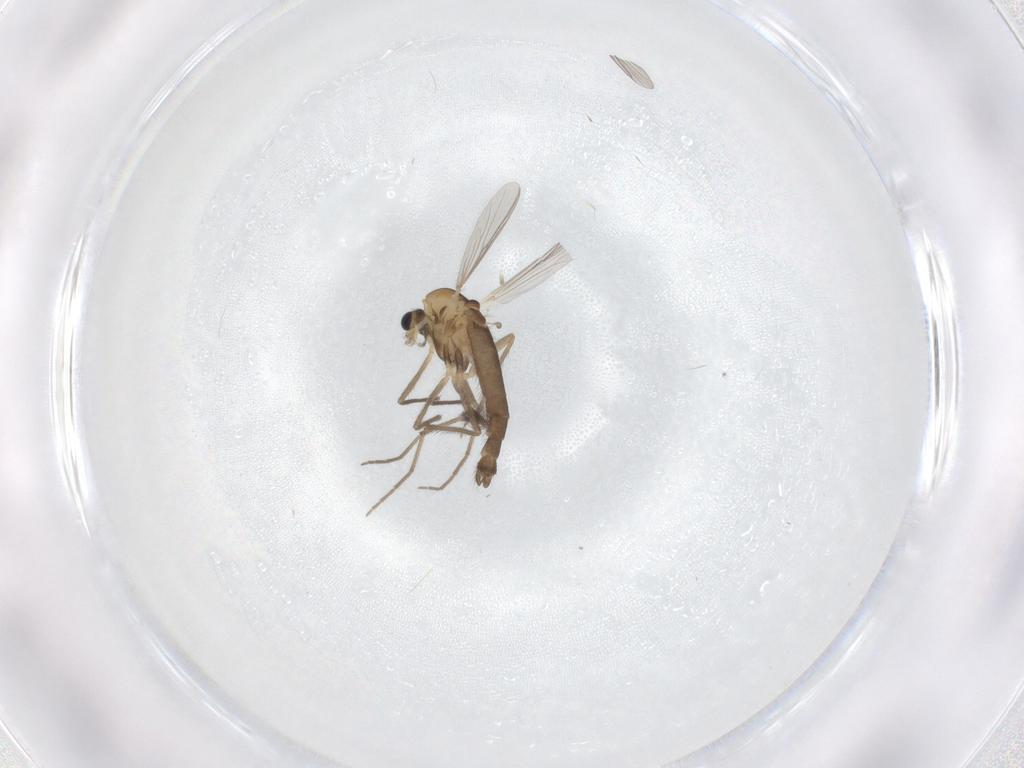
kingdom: Animalia
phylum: Arthropoda
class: Insecta
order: Diptera
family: Chironomidae
